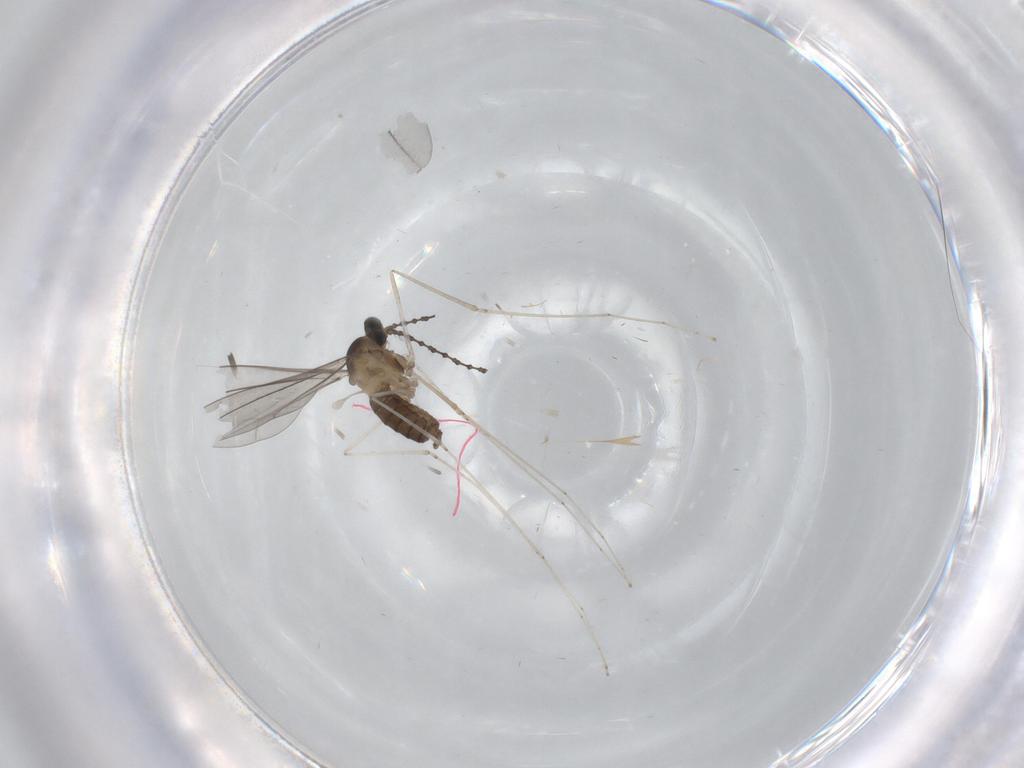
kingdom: Animalia
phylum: Arthropoda
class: Insecta
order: Diptera
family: Cecidomyiidae
